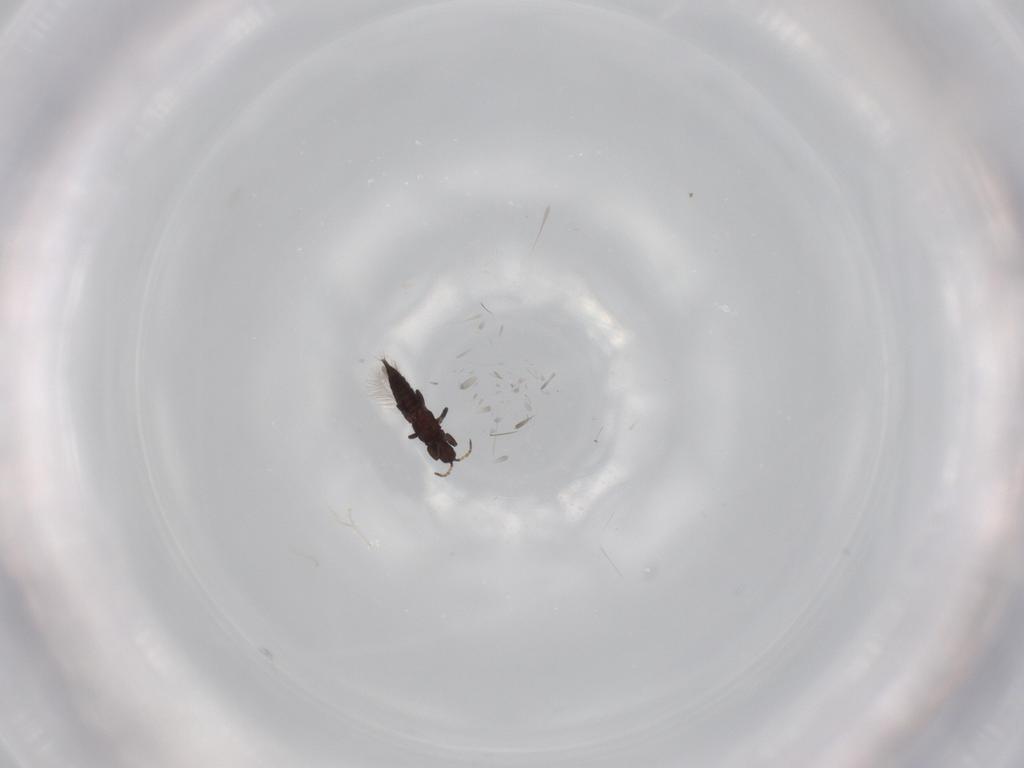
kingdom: Animalia
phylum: Arthropoda
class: Insecta
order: Thysanoptera
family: Phlaeothripidae
